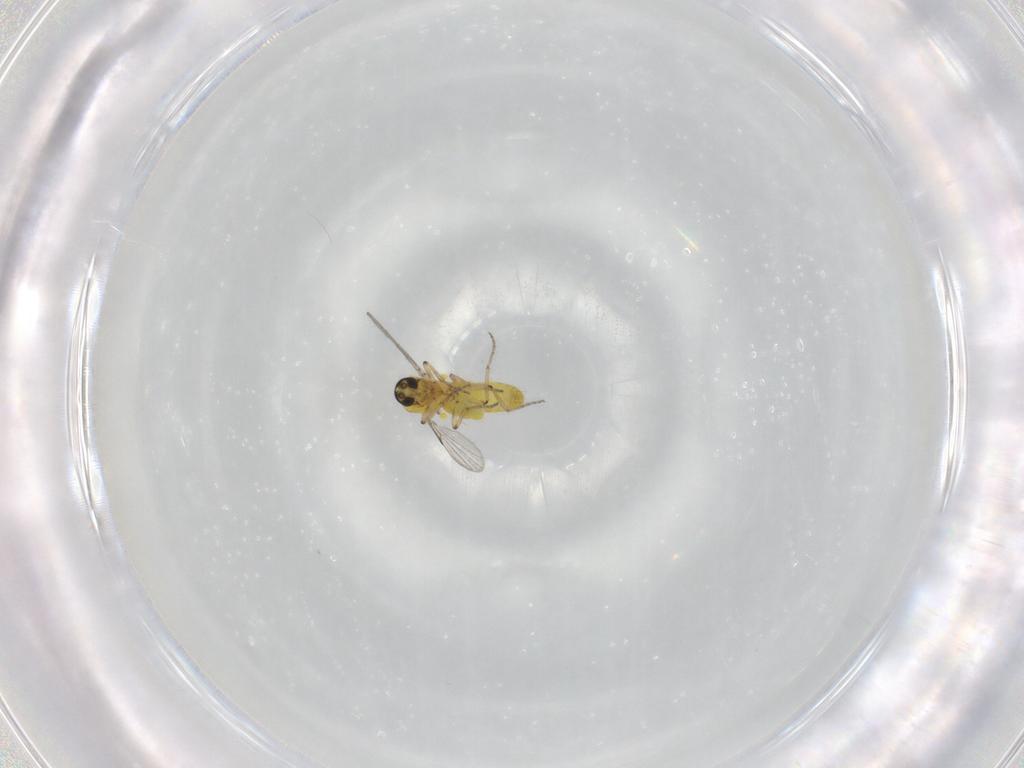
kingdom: Animalia
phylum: Arthropoda
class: Insecta
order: Diptera
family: Ceratopogonidae
